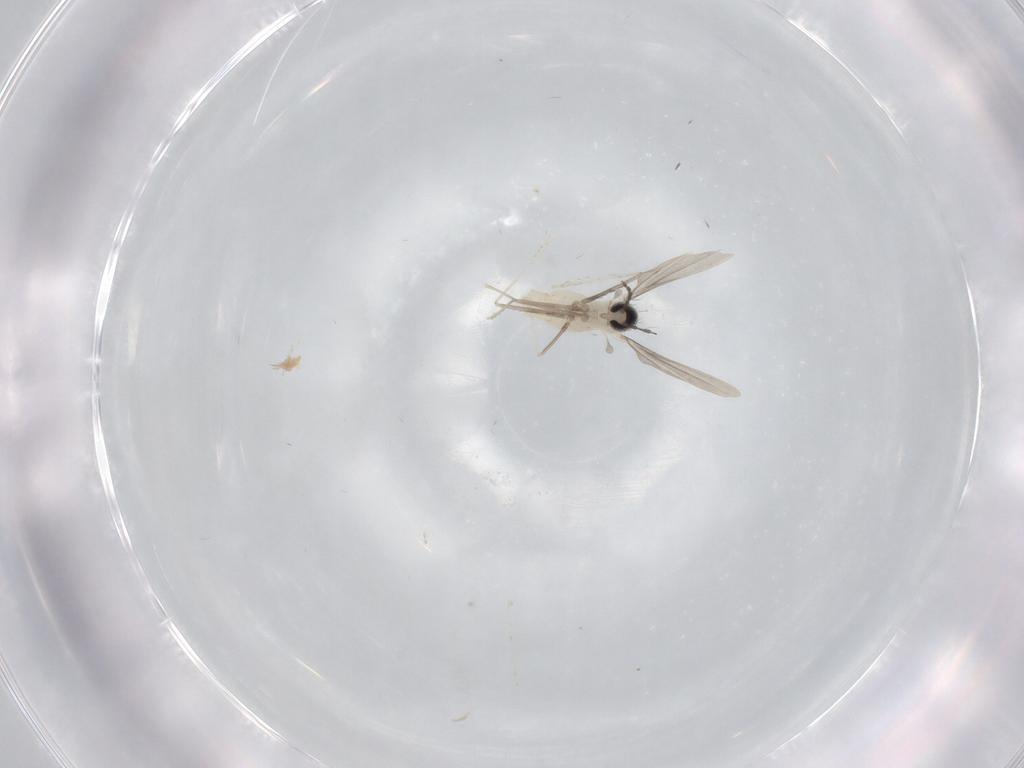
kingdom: Animalia
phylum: Arthropoda
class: Insecta
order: Diptera
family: Cecidomyiidae
